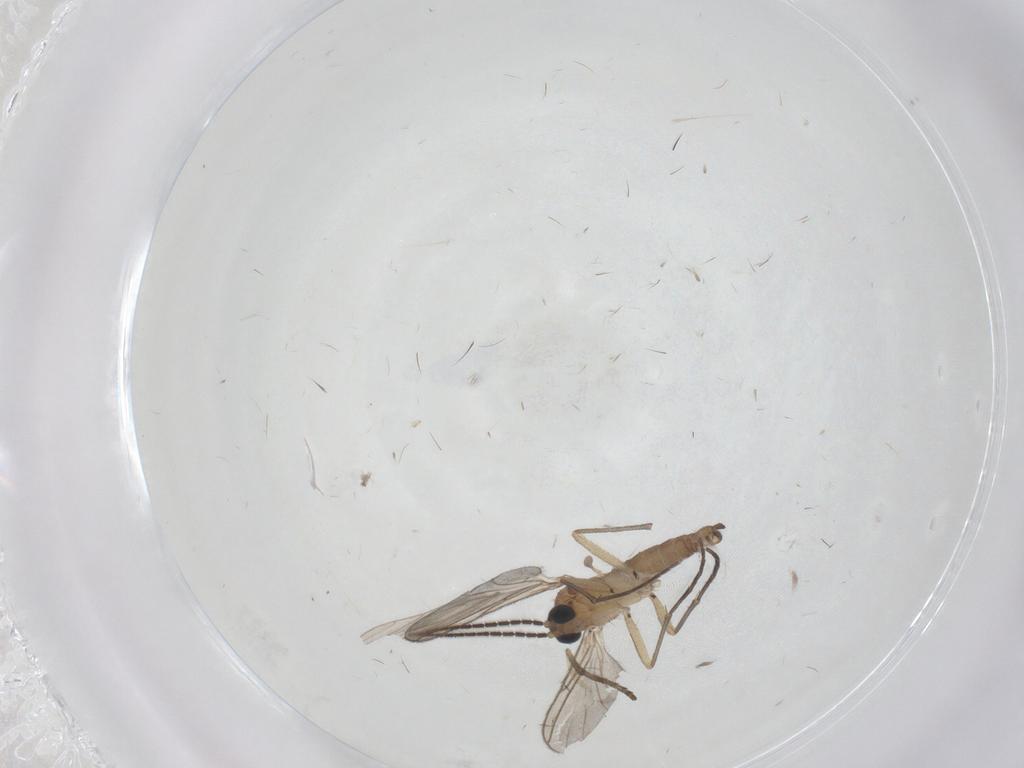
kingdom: Animalia
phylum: Arthropoda
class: Insecta
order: Diptera
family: Sciaridae
